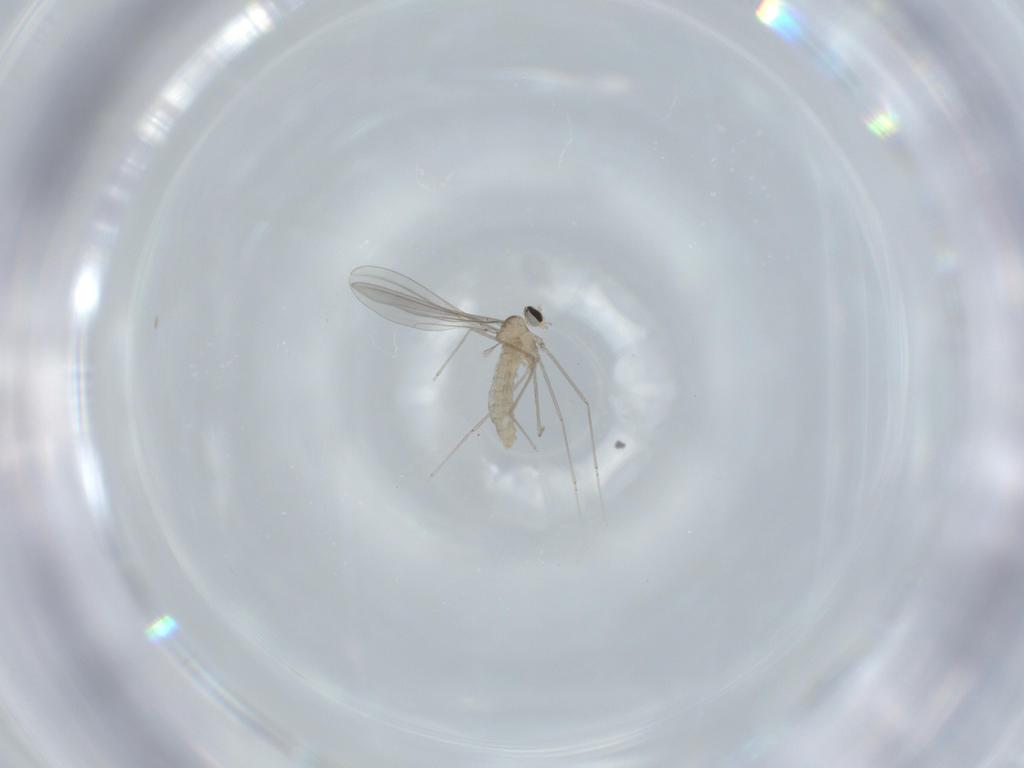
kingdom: Animalia
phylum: Arthropoda
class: Insecta
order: Diptera
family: Cecidomyiidae
